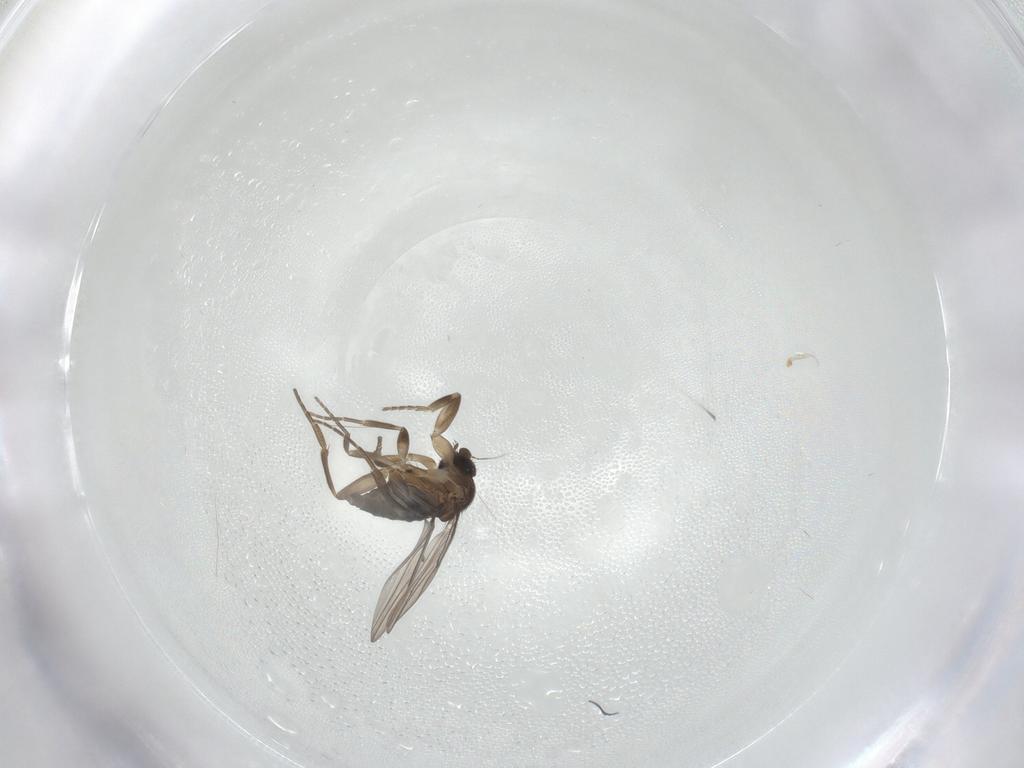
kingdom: Animalia
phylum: Arthropoda
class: Insecta
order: Diptera
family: Phoridae
